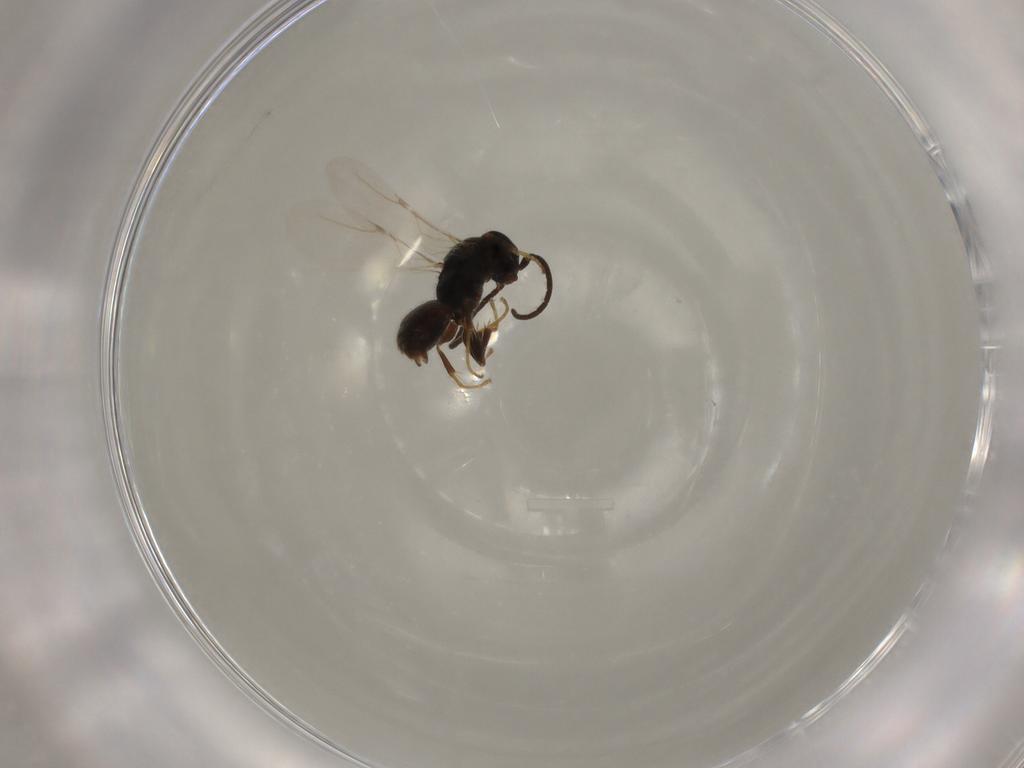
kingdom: Animalia
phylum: Arthropoda
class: Insecta
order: Hymenoptera
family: Bethylidae
